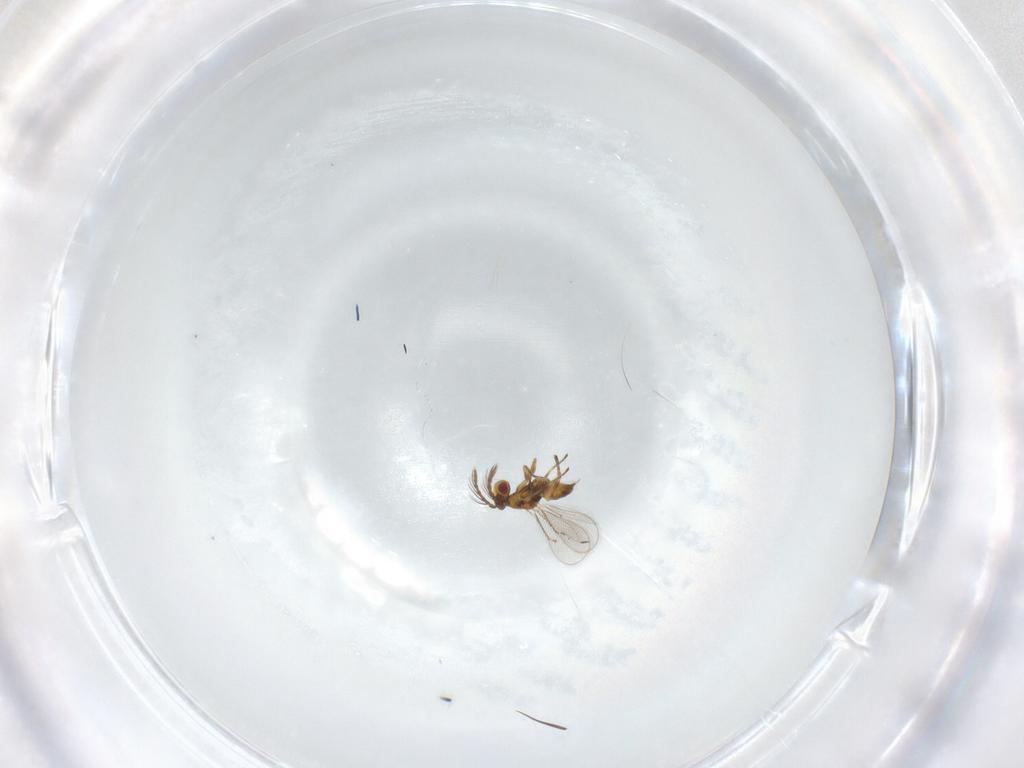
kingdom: Animalia
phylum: Arthropoda
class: Insecta
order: Hymenoptera
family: Eulophidae
